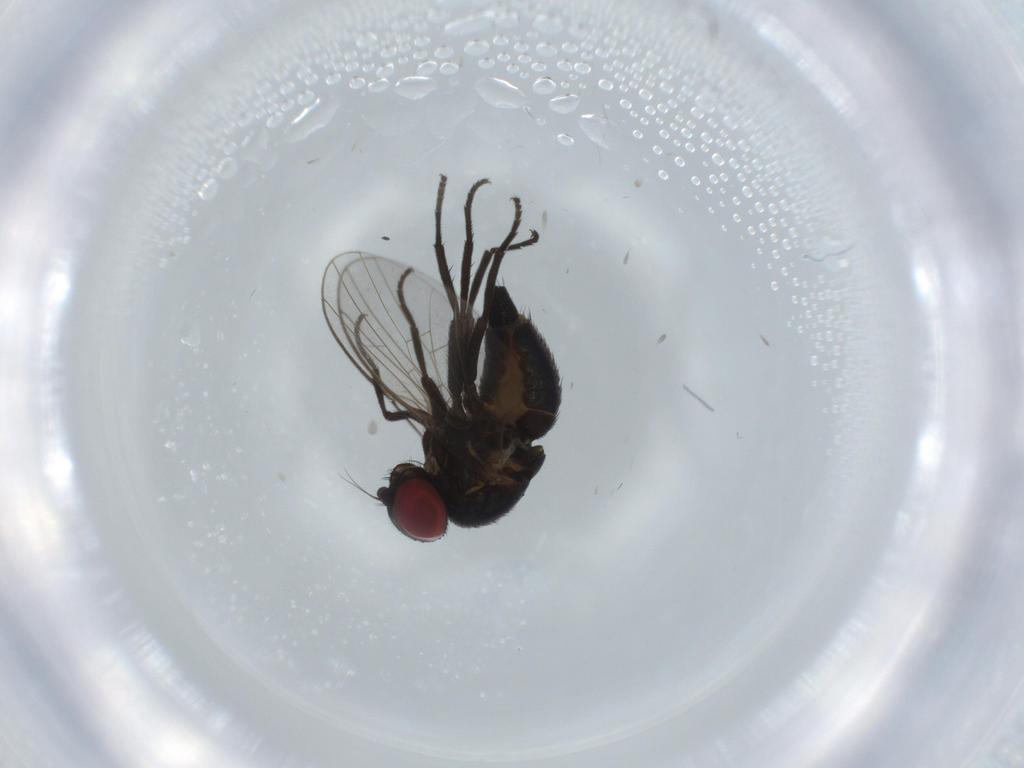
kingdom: Animalia
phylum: Arthropoda
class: Insecta
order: Diptera
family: Agromyzidae
